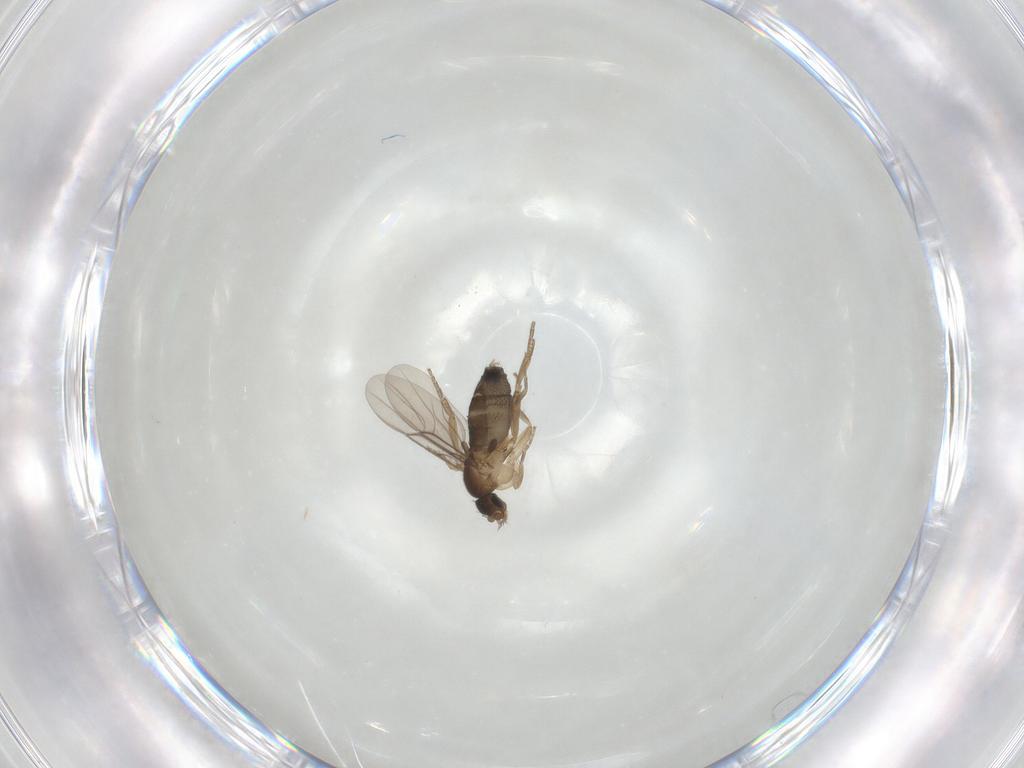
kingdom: Animalia
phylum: Arthropoda
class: Insecta
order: Diptera
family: Phoridae
